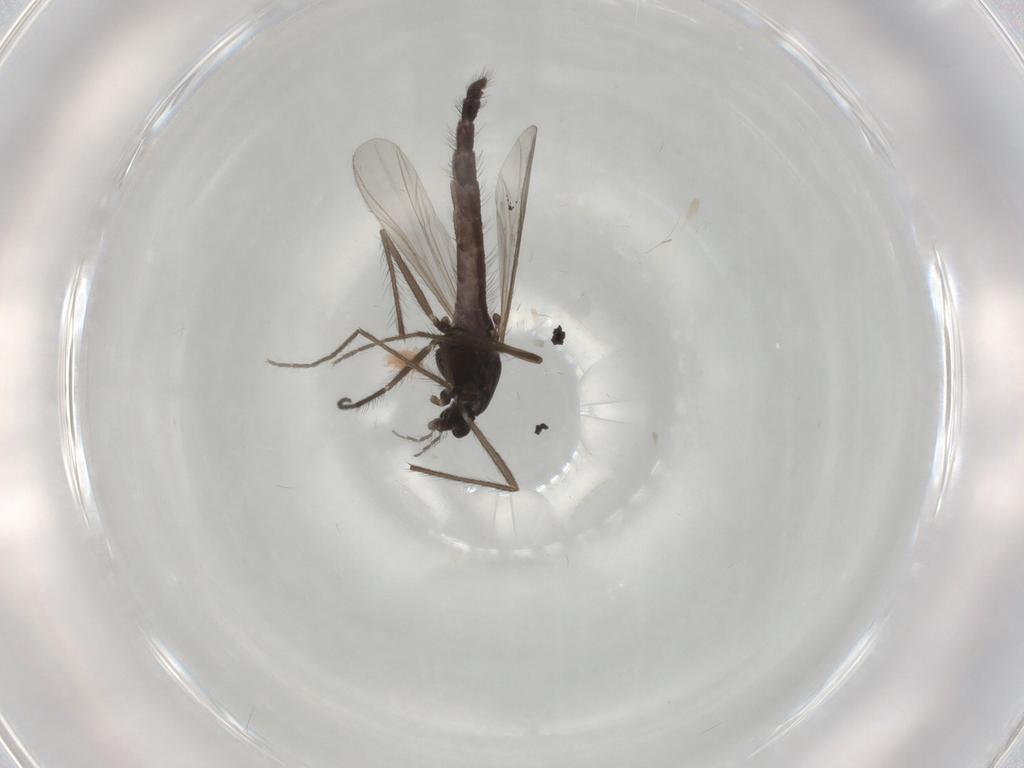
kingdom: Animalia
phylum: Arthropoda
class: Insecta
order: Diptera
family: Chironomidae
